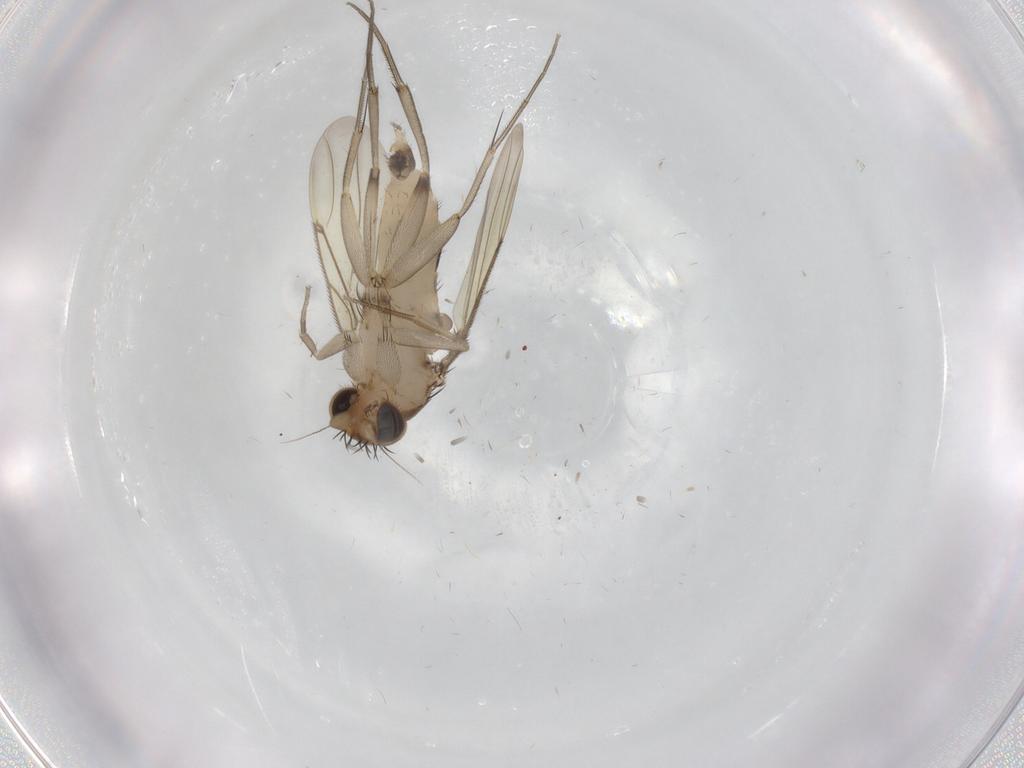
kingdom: Animalia
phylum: Arthropoda
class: Insecta
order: Diptera
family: Phoridae
